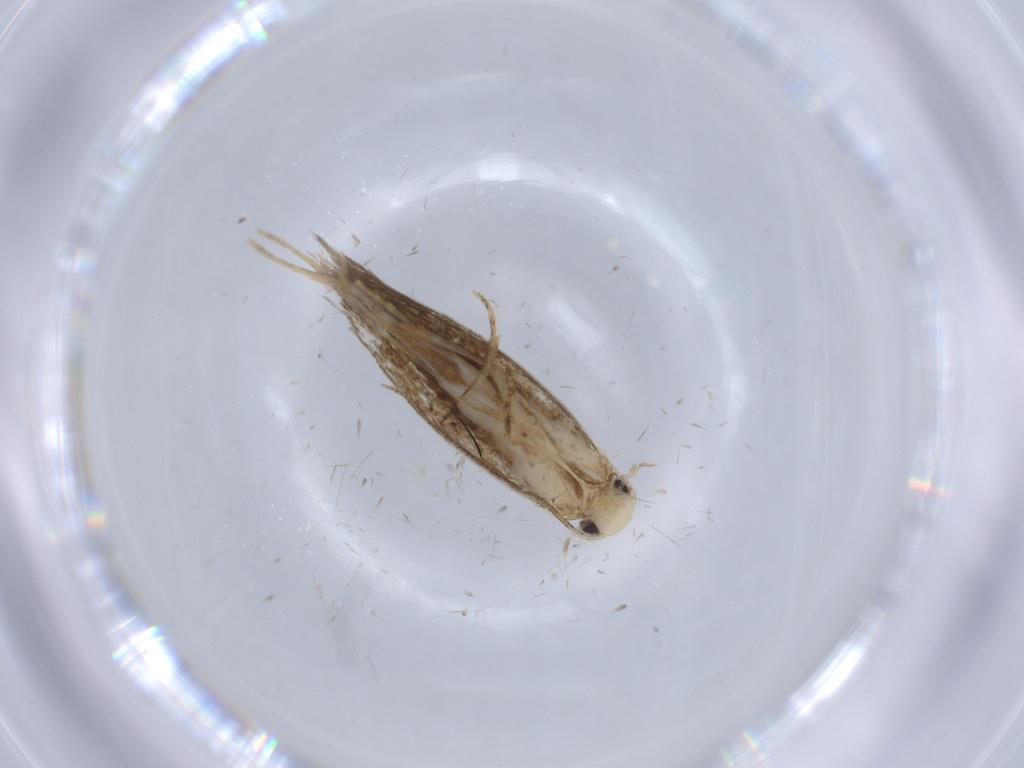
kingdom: Animalia
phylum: Arthropoda
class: Insecta
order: Lepidoptera
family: Tineidae
